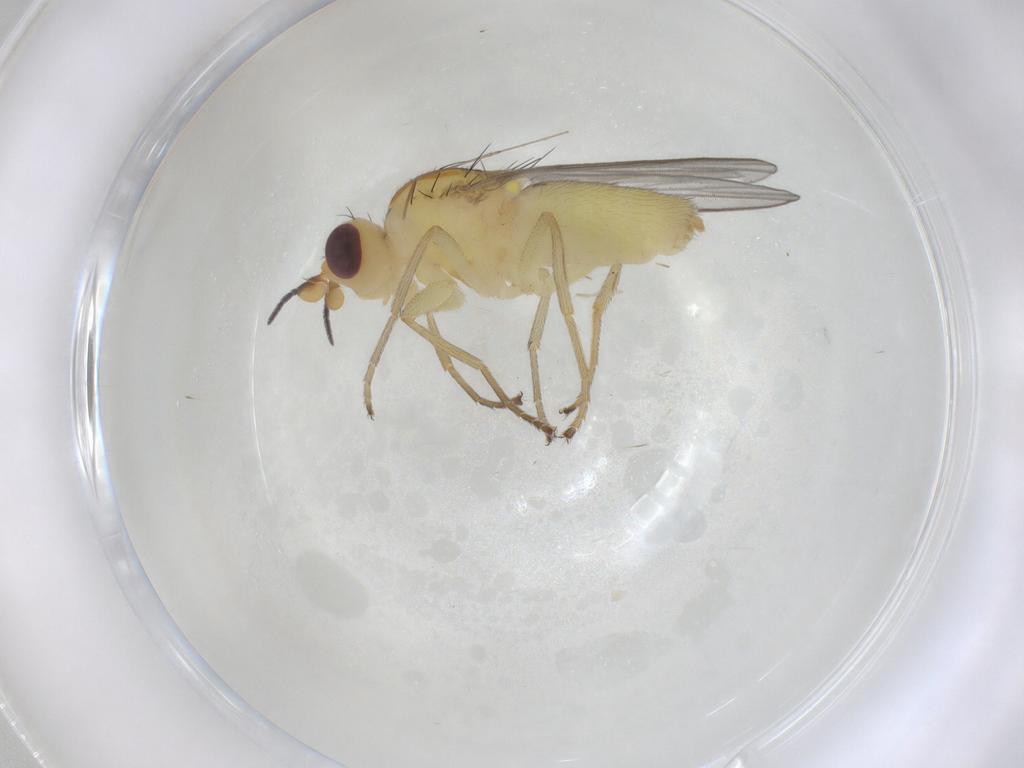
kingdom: Animalia
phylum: Arthropoda
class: Insecta
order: Diptera
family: Chloropidae
